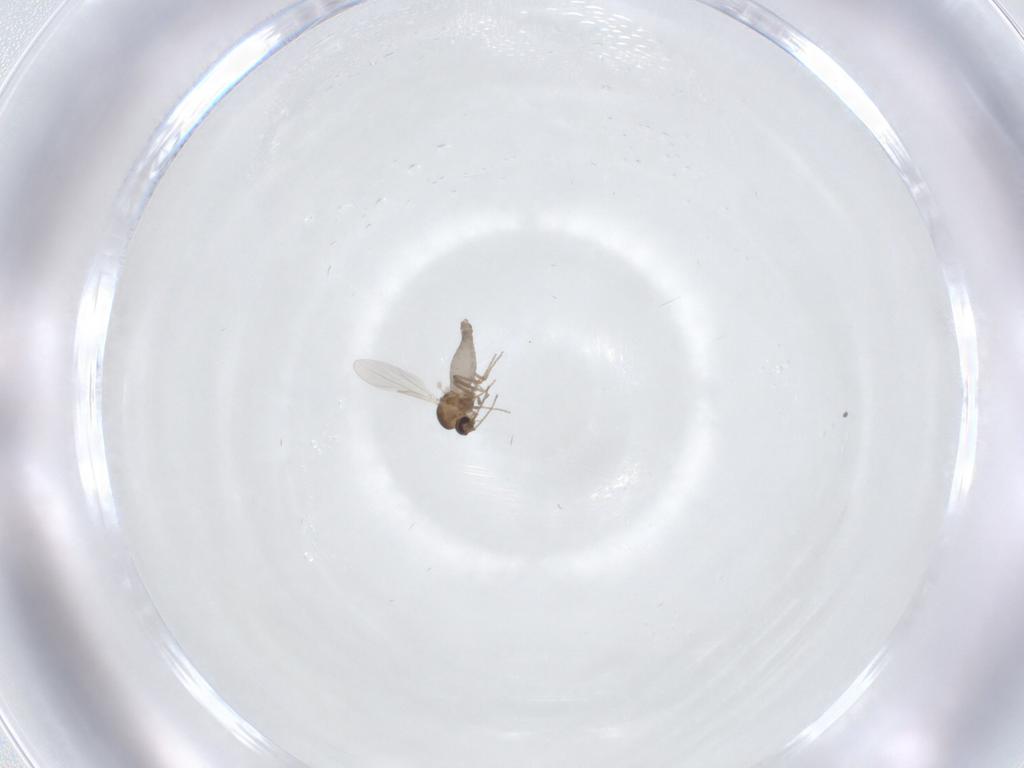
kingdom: Animalia
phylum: Arthropoda
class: Insecta
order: Diptera
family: Ceratopogonidae
